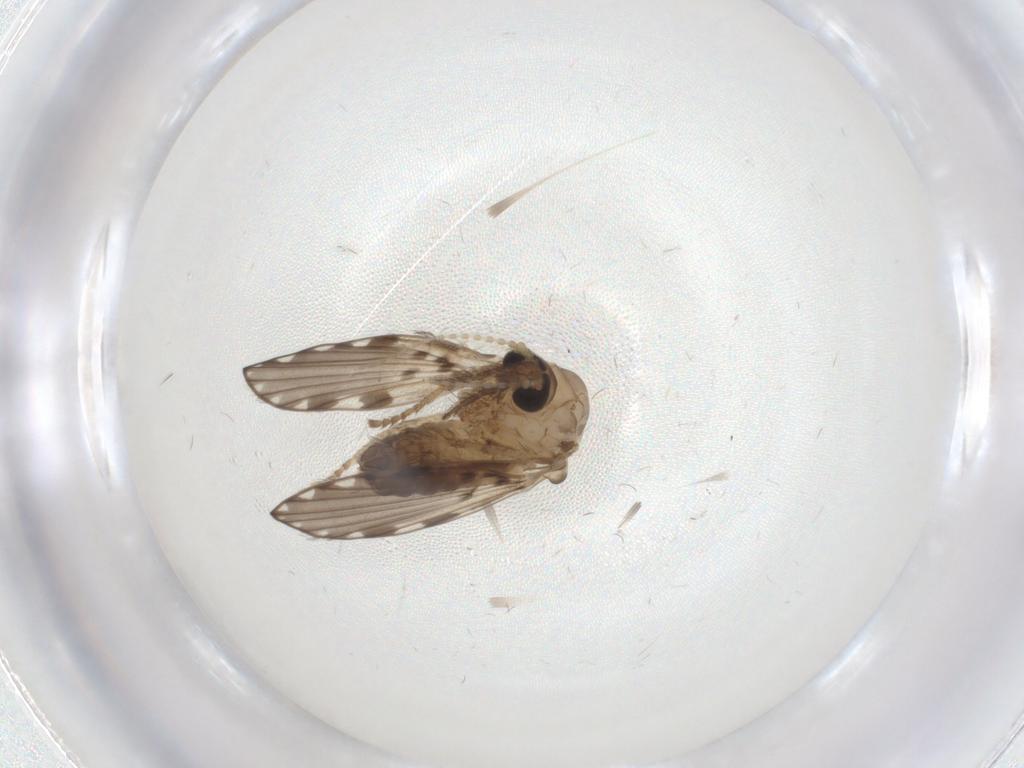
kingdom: Animalia
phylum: Arthropoda
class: Insecta
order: Diptera
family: Psychodidae
